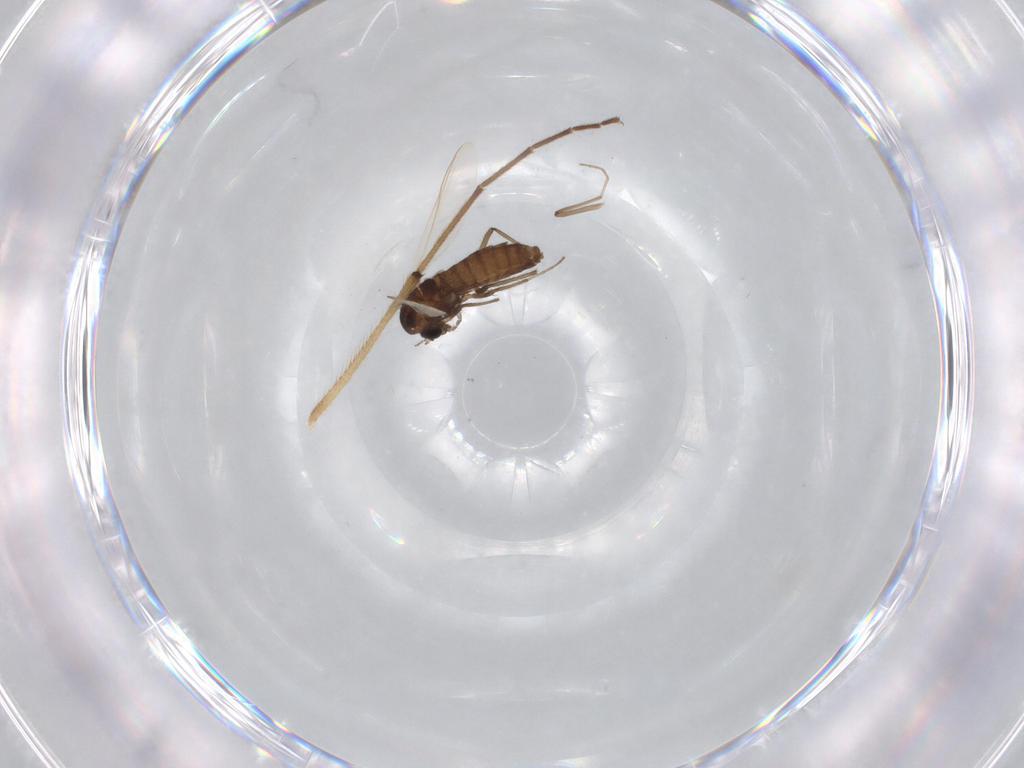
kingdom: Animalia
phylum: Arthropoda
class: Insecta
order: Diptera
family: Chironomidae
